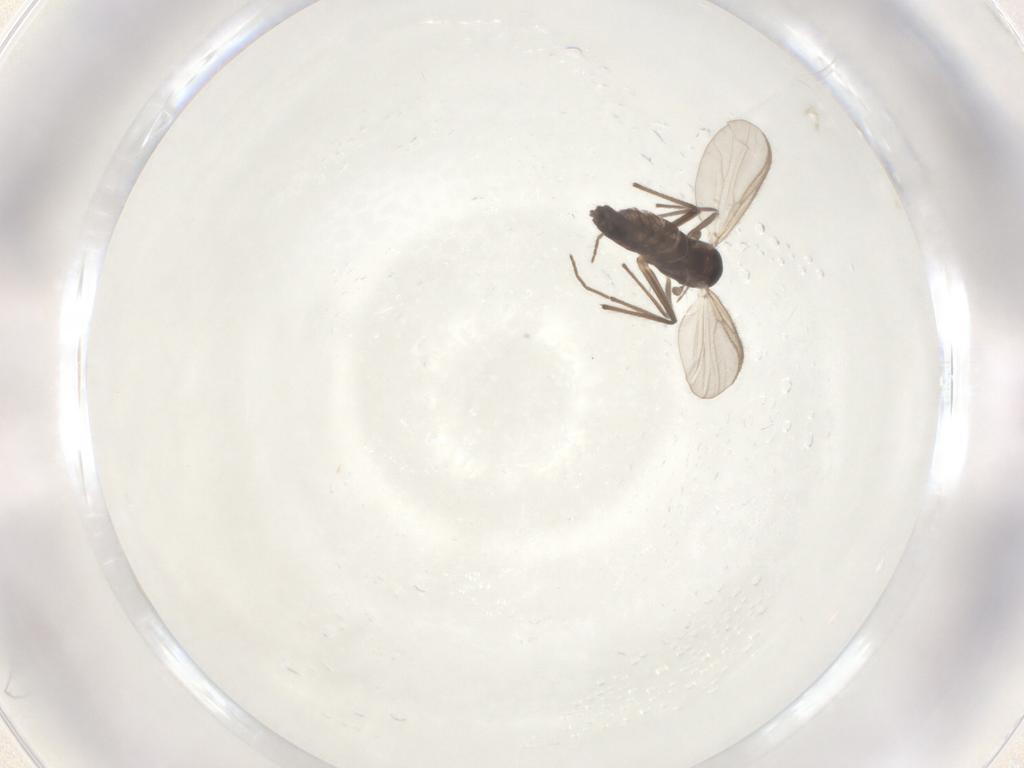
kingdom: Animalia
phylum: Arthropoda
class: Insecta
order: Diptera
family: Chironomidae
